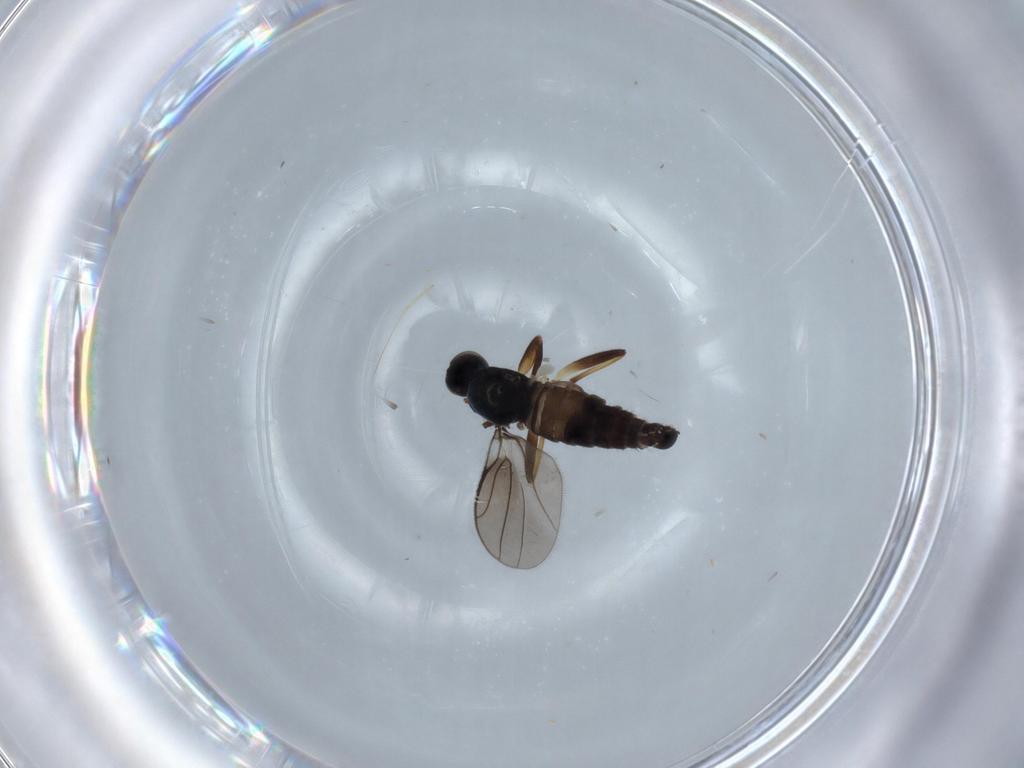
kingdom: Animalia
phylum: Arthropoda
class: Insecta
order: Diptera
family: Hybotidae
